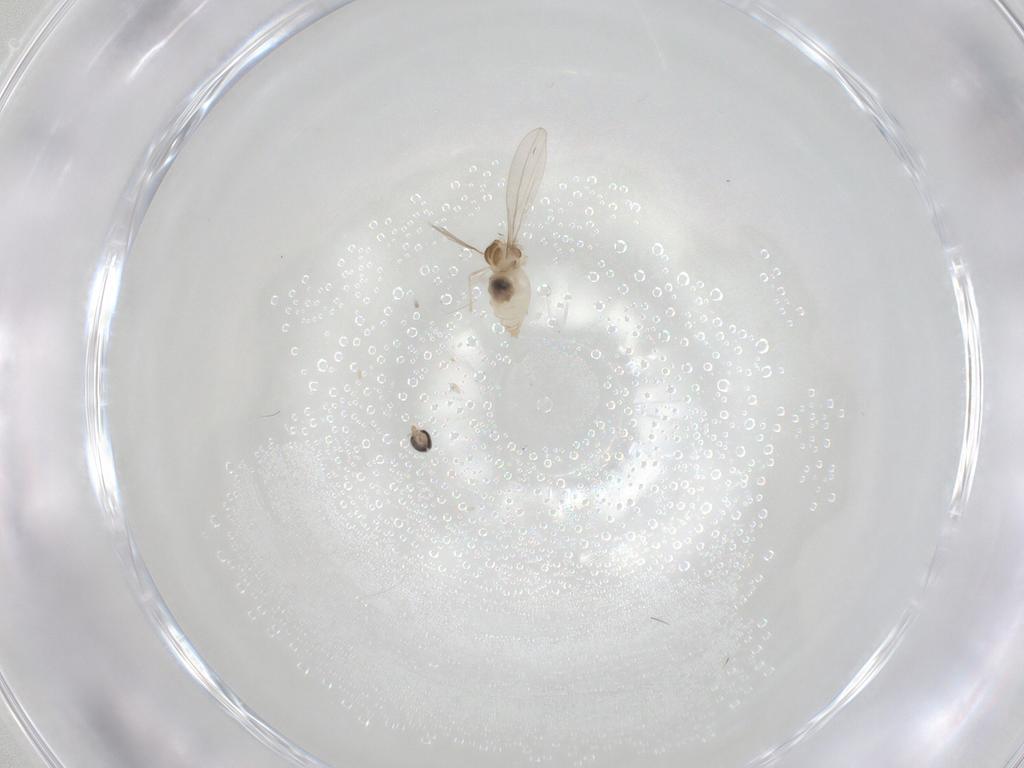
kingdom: Animalia
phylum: Arthropoda
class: Insecta
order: Diptera
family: Cecidomyiidae
